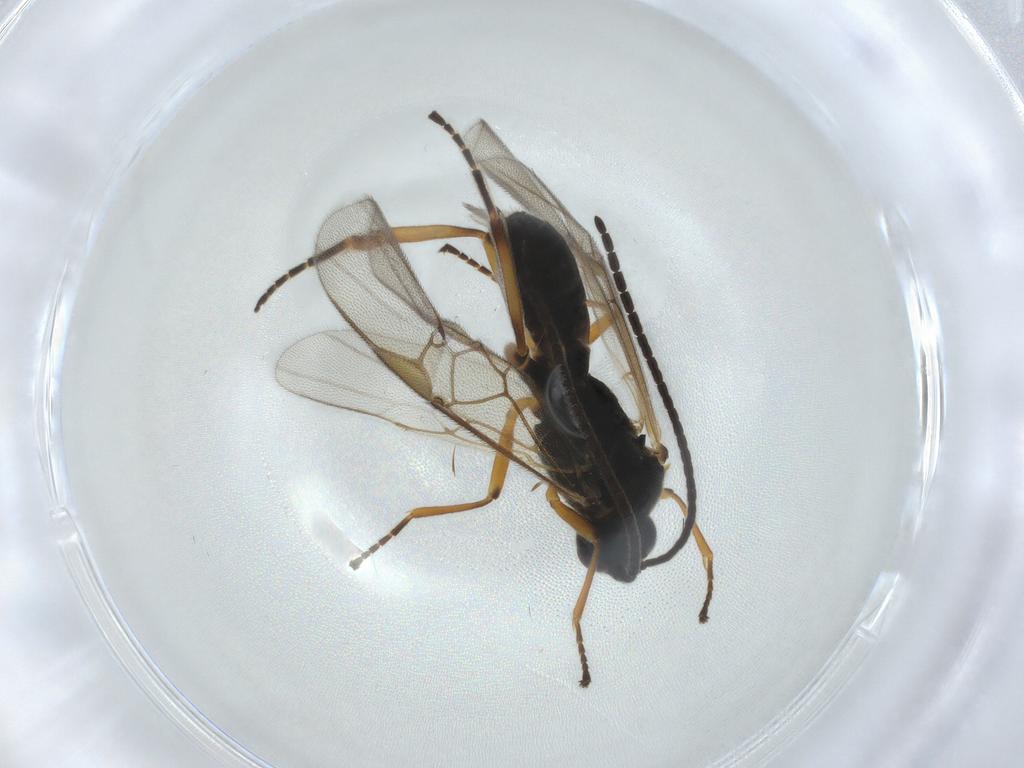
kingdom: Animalia
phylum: Arthropoda
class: Insecta
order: Hymenoptera
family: Braconidae
